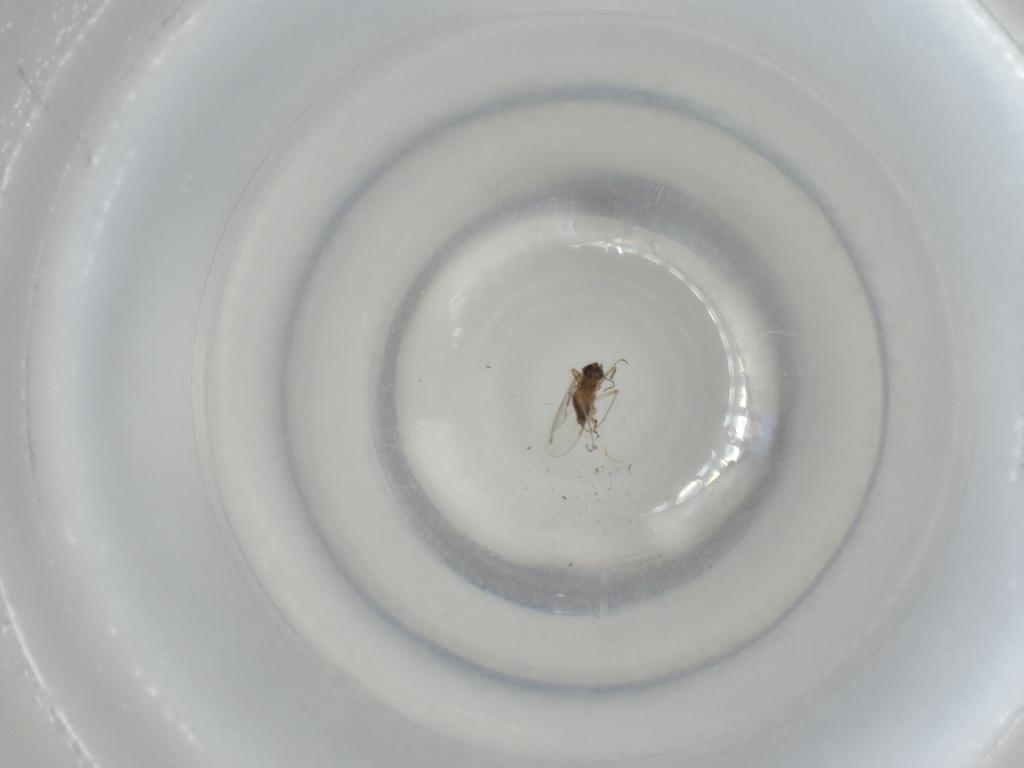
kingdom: Animalia
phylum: Arthropoda
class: Insecta
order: Diptera
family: Ceratopogonidae
